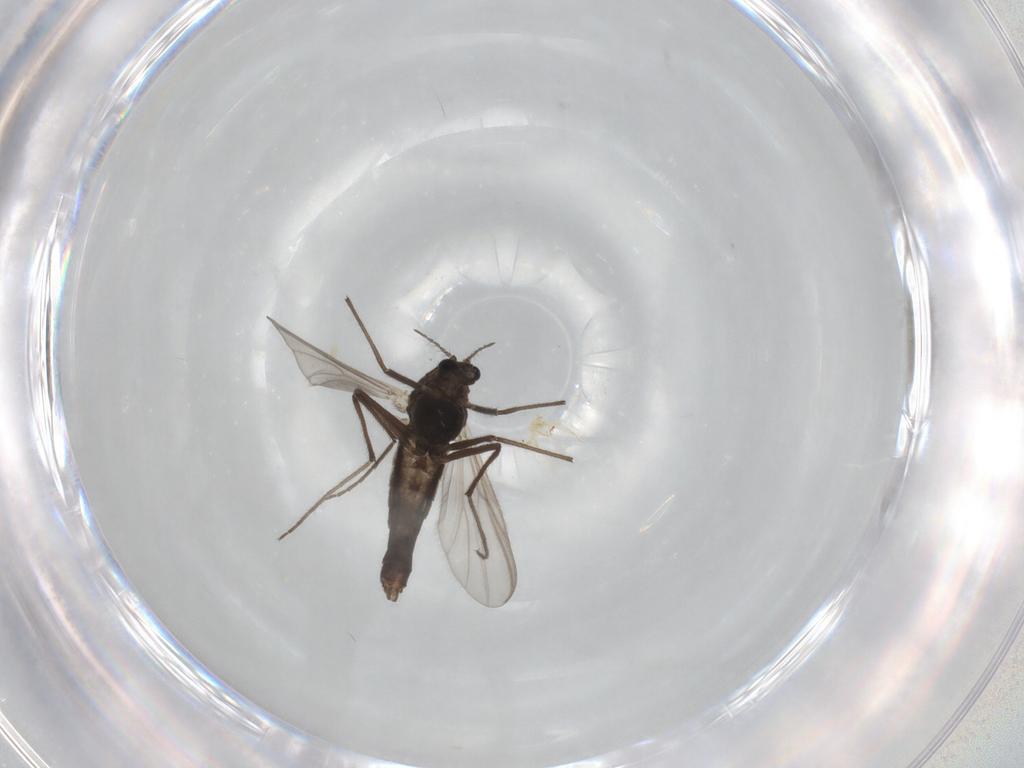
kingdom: Animalia
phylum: Arthropoda
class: Insecta
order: Diptera
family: Chironomidae
